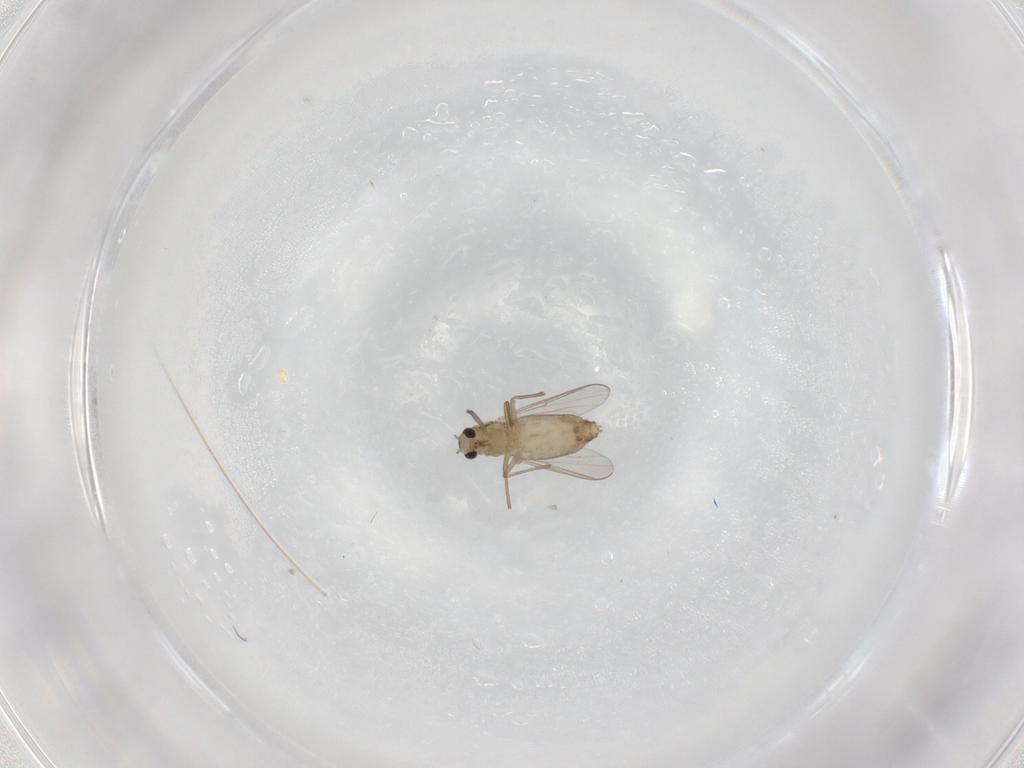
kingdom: Animalia
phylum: Arthropoda
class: Insecta
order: Diptera
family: Chironomidae
